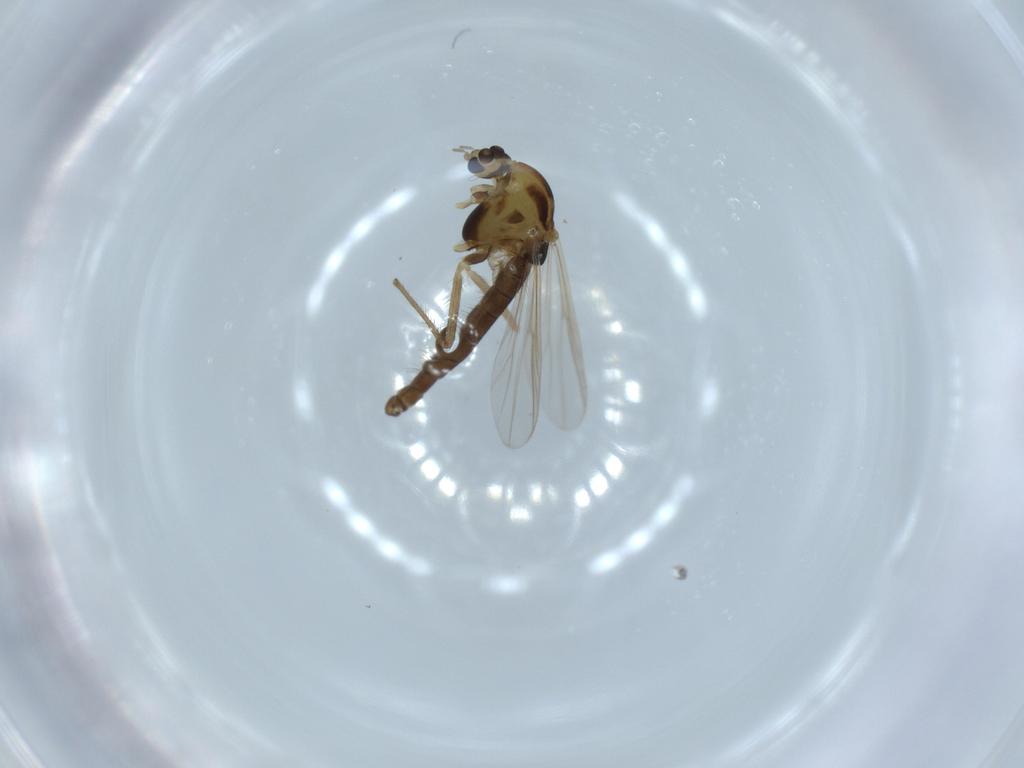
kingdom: Animalia
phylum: Arthropoda
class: Insecta
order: Diptera
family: Chironomidae
